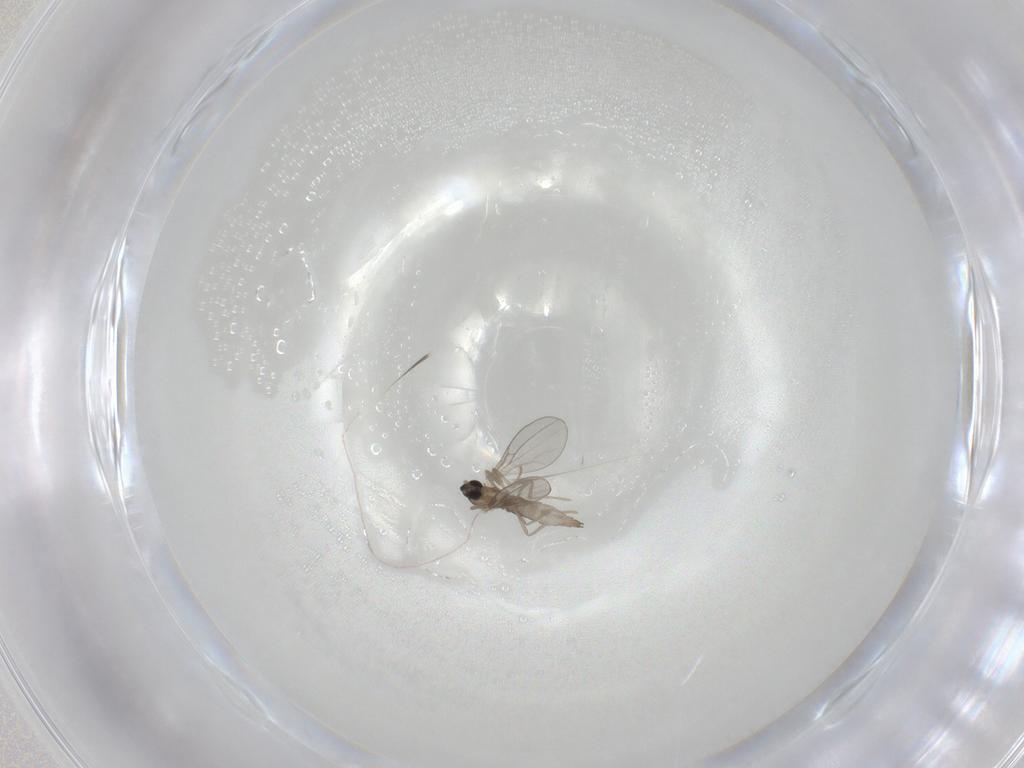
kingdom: Animalia
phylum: Arthropoda
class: Insecta
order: Diptera
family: Cecidomyiidae
